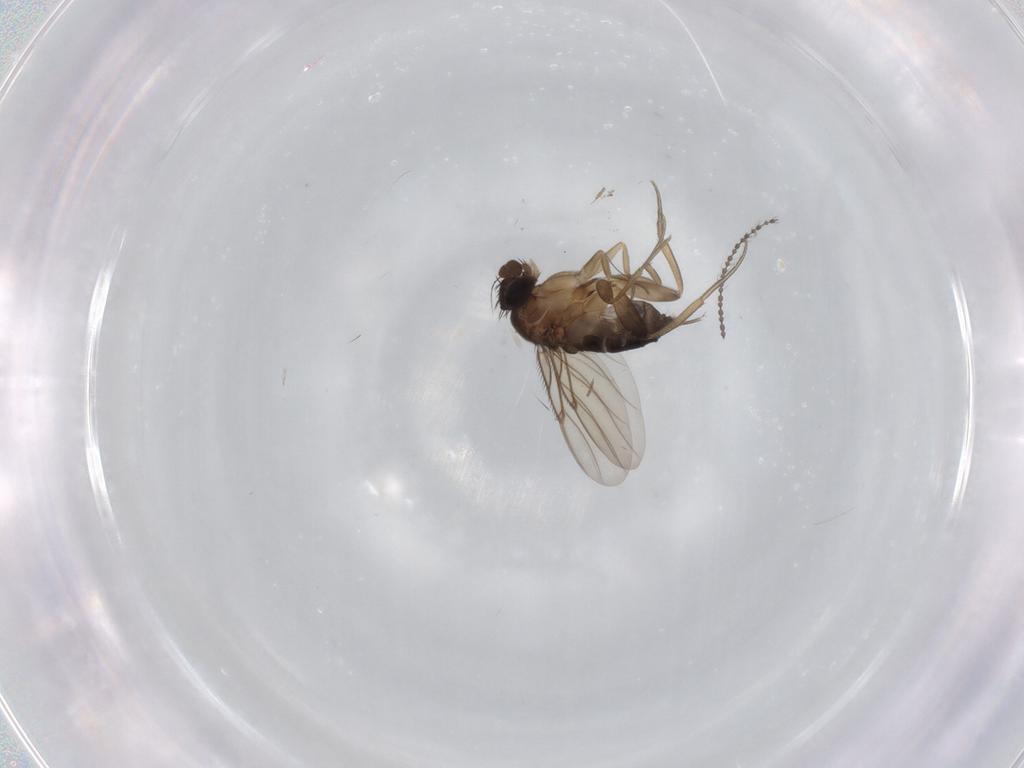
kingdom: Animalia
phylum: Arthropoda
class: Insecta
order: Diptera
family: Cecidomyiidae
